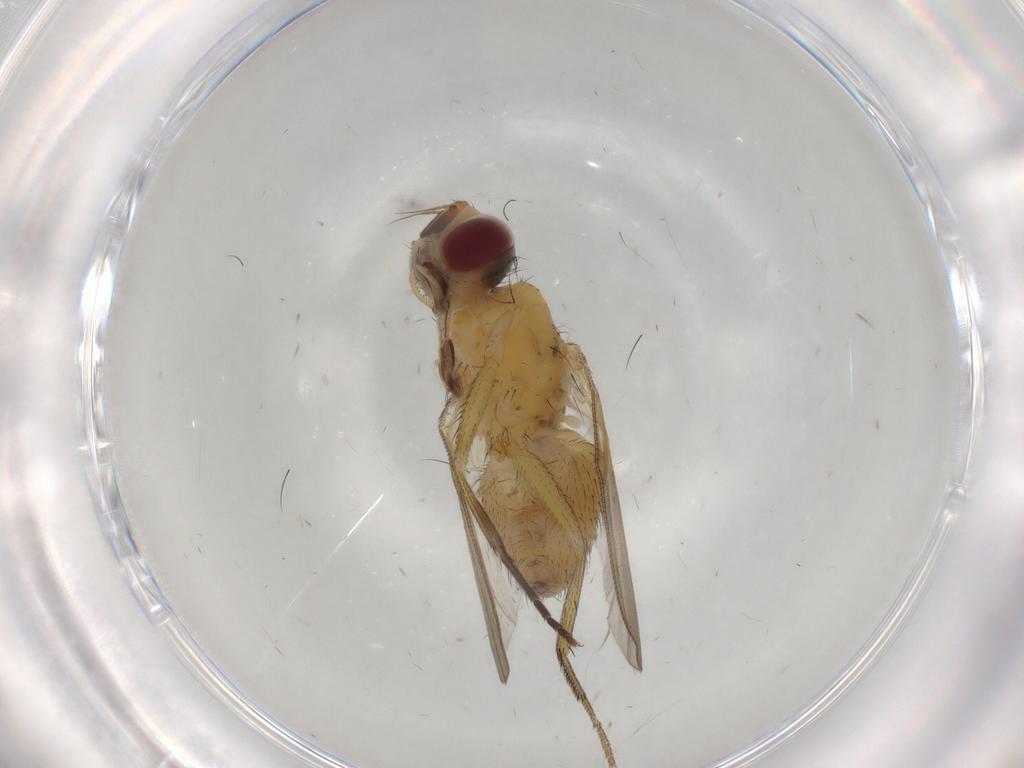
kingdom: Animalia
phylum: Arthropoda
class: Insecta
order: Diptera
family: Muscidae
